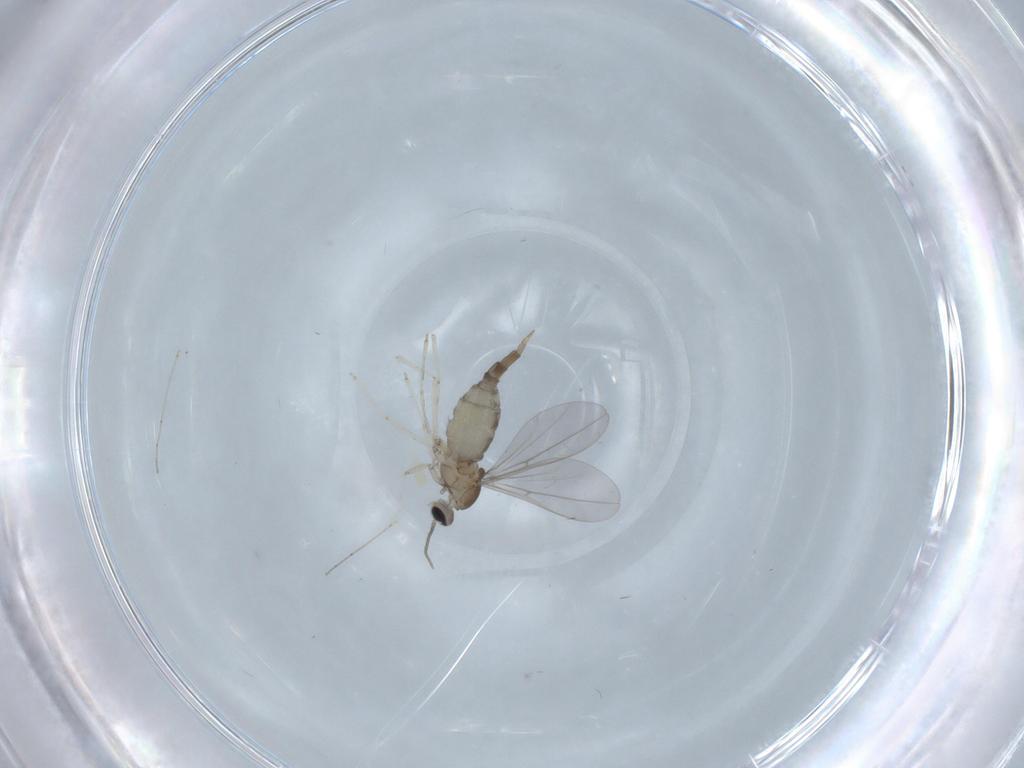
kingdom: Animalia
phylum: Arthropoda
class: Insecta
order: Diptera
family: Cecidomyiidae
